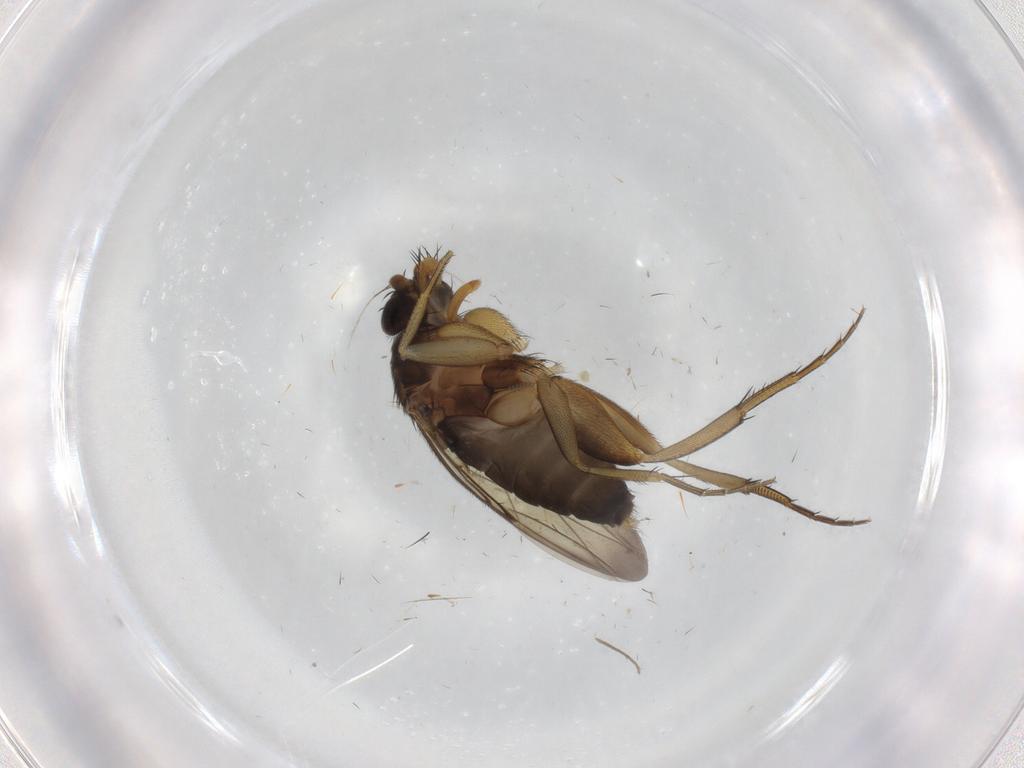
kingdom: Animalia
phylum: Arthropoda
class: Insecta
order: Diptera
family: Phoridae
